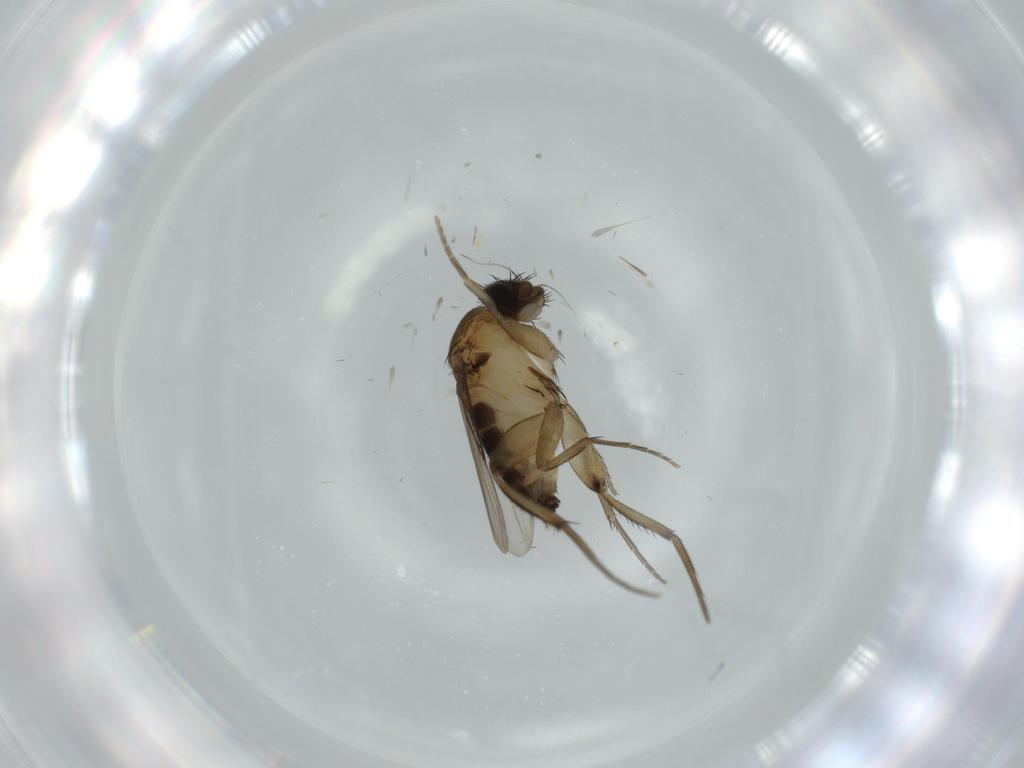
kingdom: Animalia
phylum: Arthropoda
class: Insecta
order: Diptera
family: Phoridae
